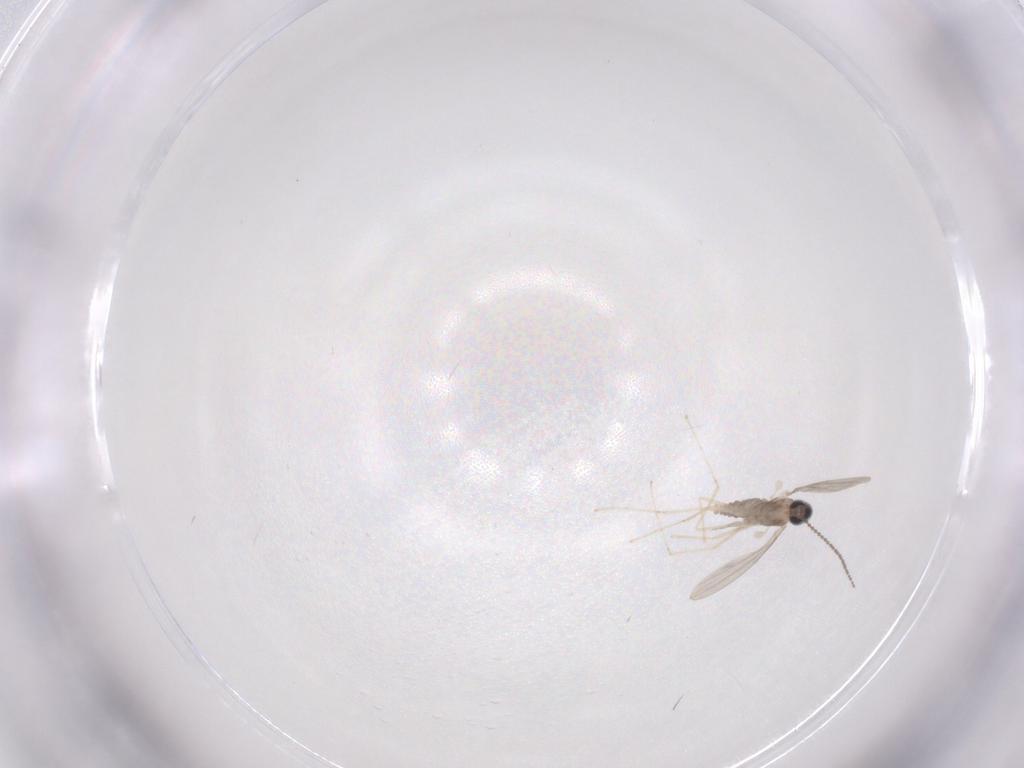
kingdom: Animalia
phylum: Arthropoda
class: Insecta
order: Diptera
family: Cecidomyiidae
